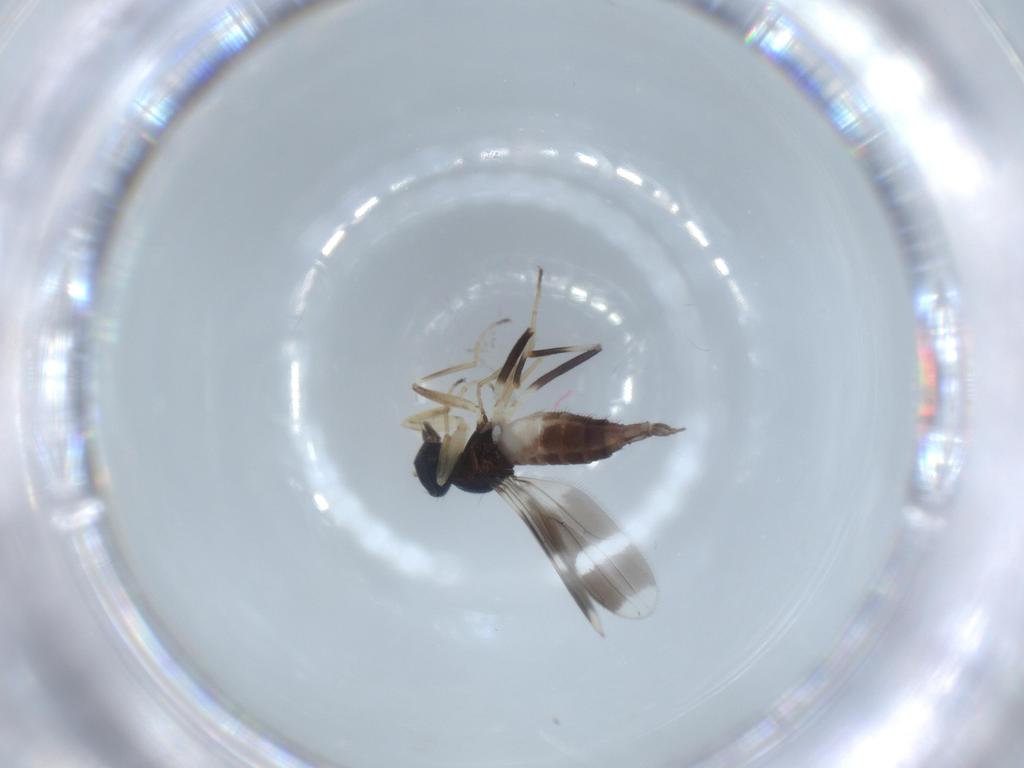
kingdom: Animalia
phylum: Arthropoda
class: Insecta
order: Diptera
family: Hybotidae
